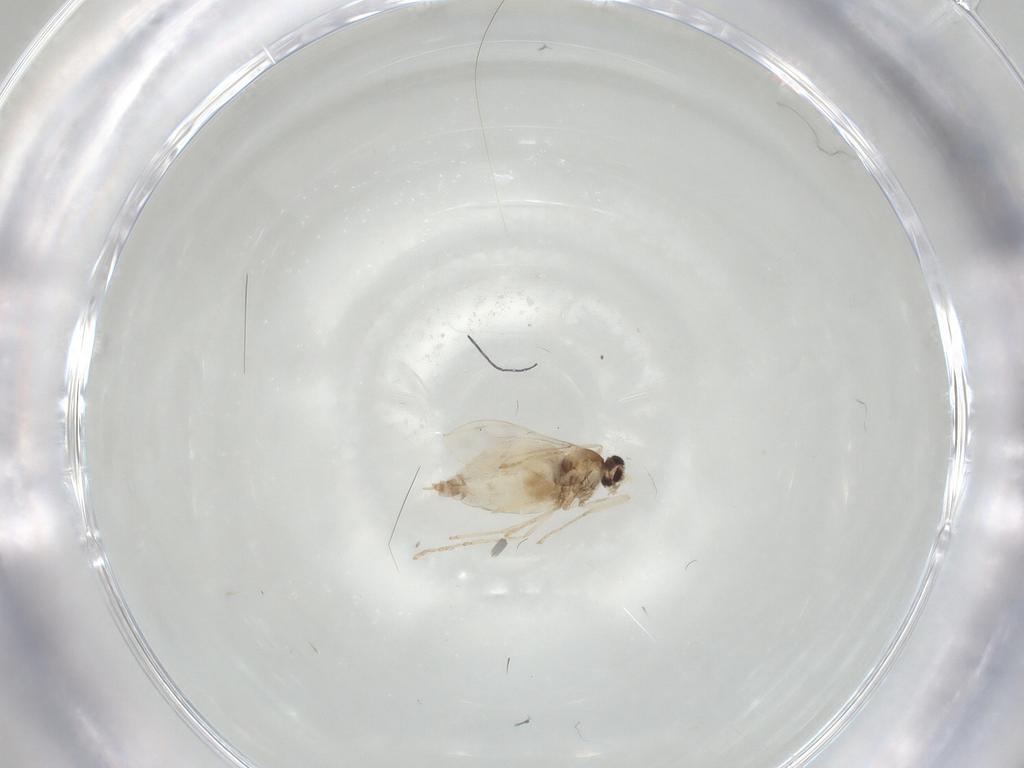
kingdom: Animalia
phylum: Arthropoda
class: Insecta
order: Diptera
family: Cecidomyiidae
